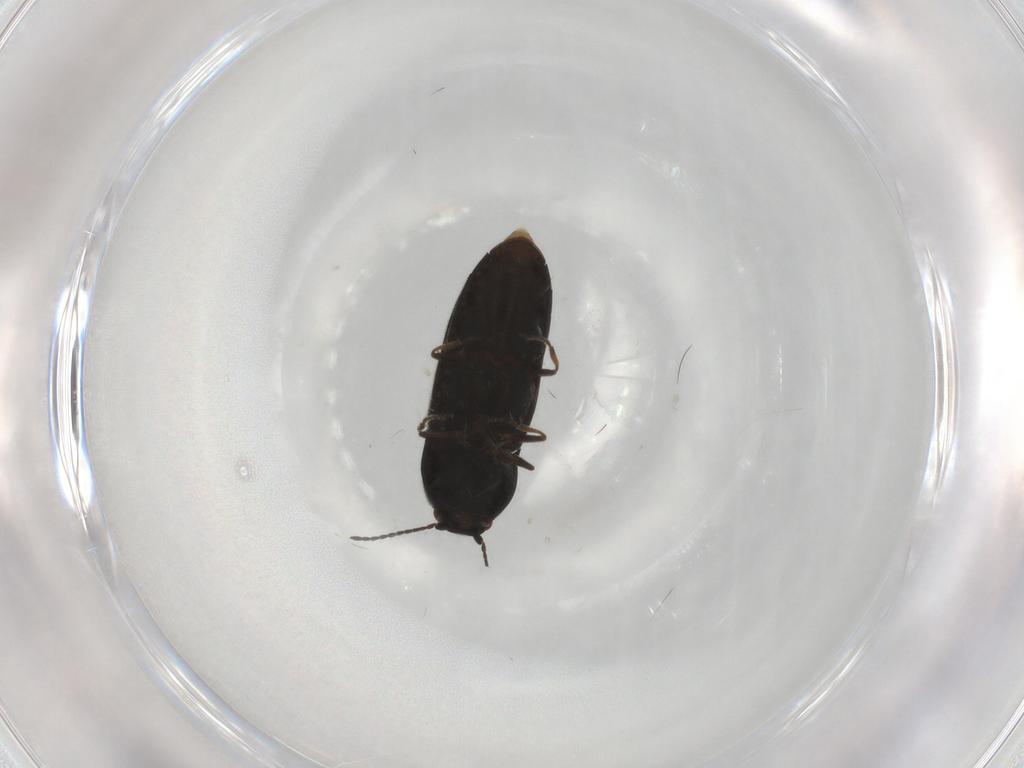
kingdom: Animalia
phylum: Arthropoda
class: Insecta
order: Coleoptera
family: Elateridae
